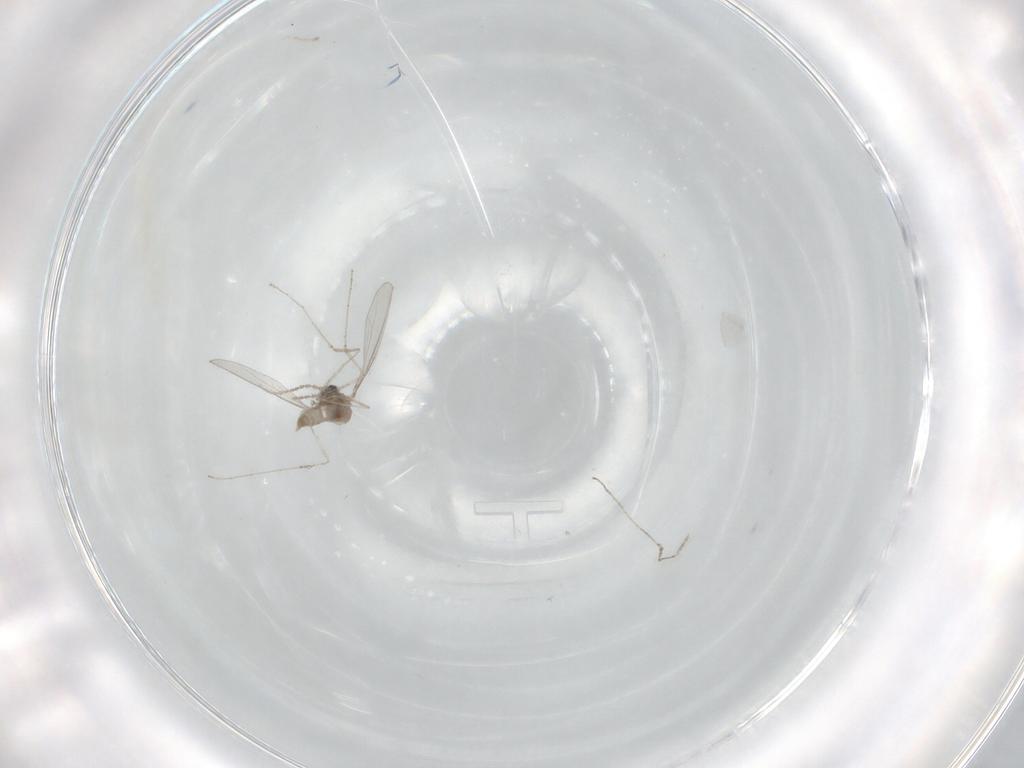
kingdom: Animalia
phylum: Arthropoda
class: Insecta
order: Diptera
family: Cecidomyiidae
